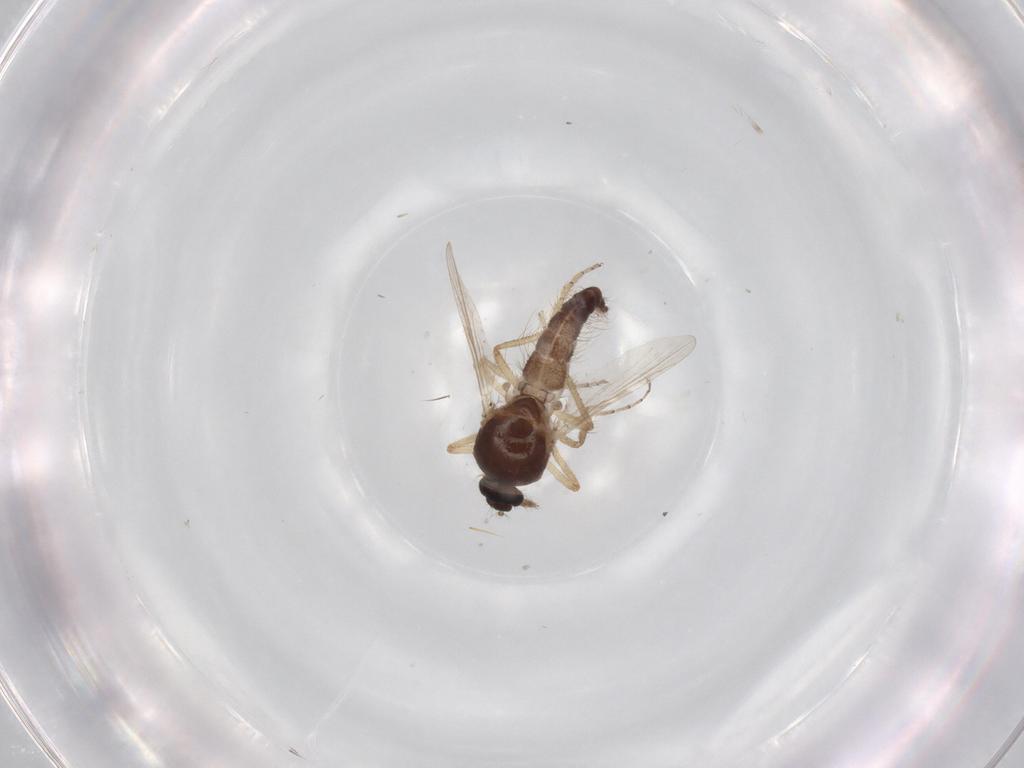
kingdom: Animalia
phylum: Arthropoda
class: Insecta
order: Diptera
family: Ceratopogonidae
